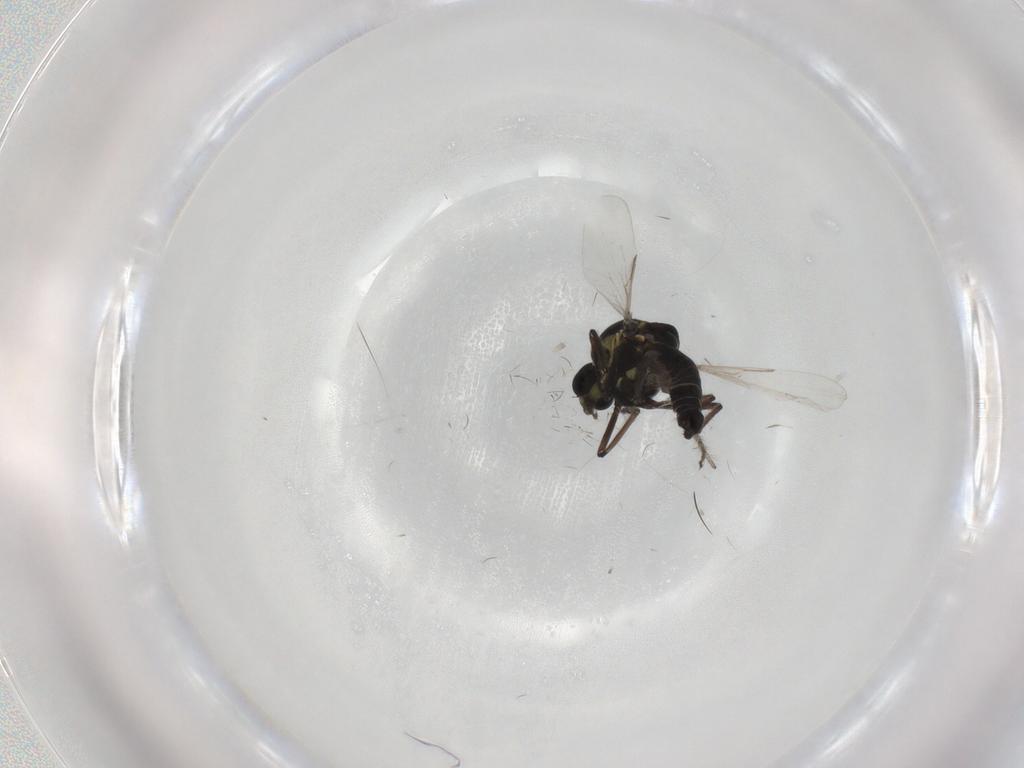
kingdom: Animalia
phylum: Arthropoda
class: Insecta
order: Diptera
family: Ceratopogonidae
